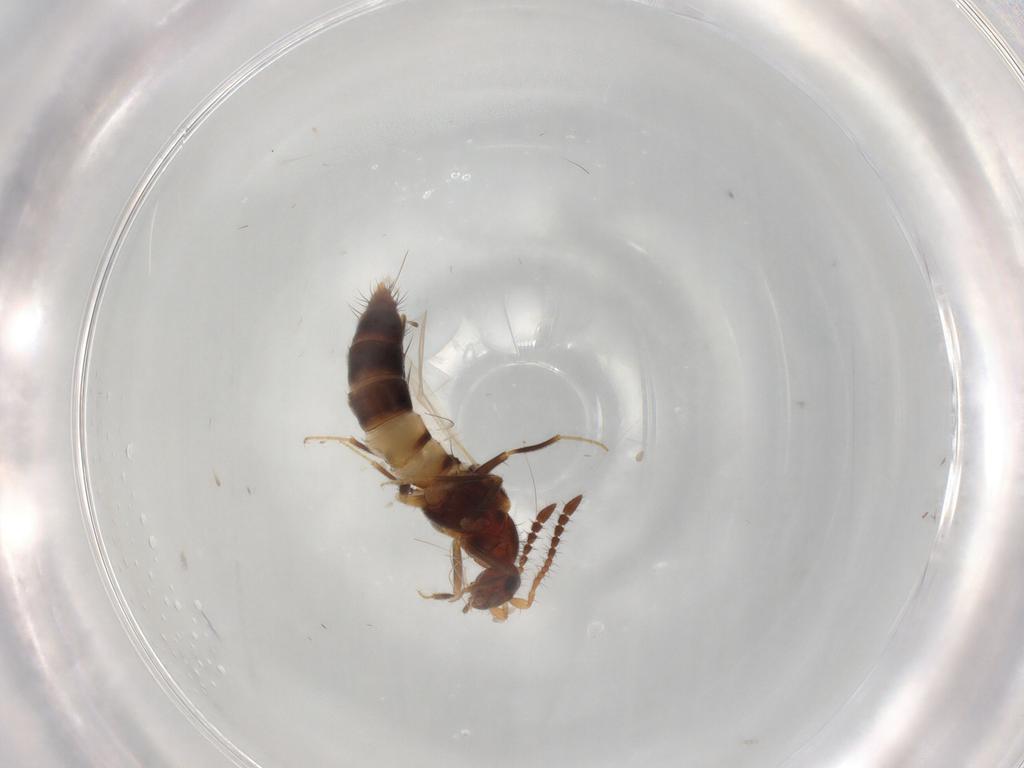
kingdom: Animalia
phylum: Arthropoda
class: Insecta
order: Coleoptera
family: Staphylinidae
